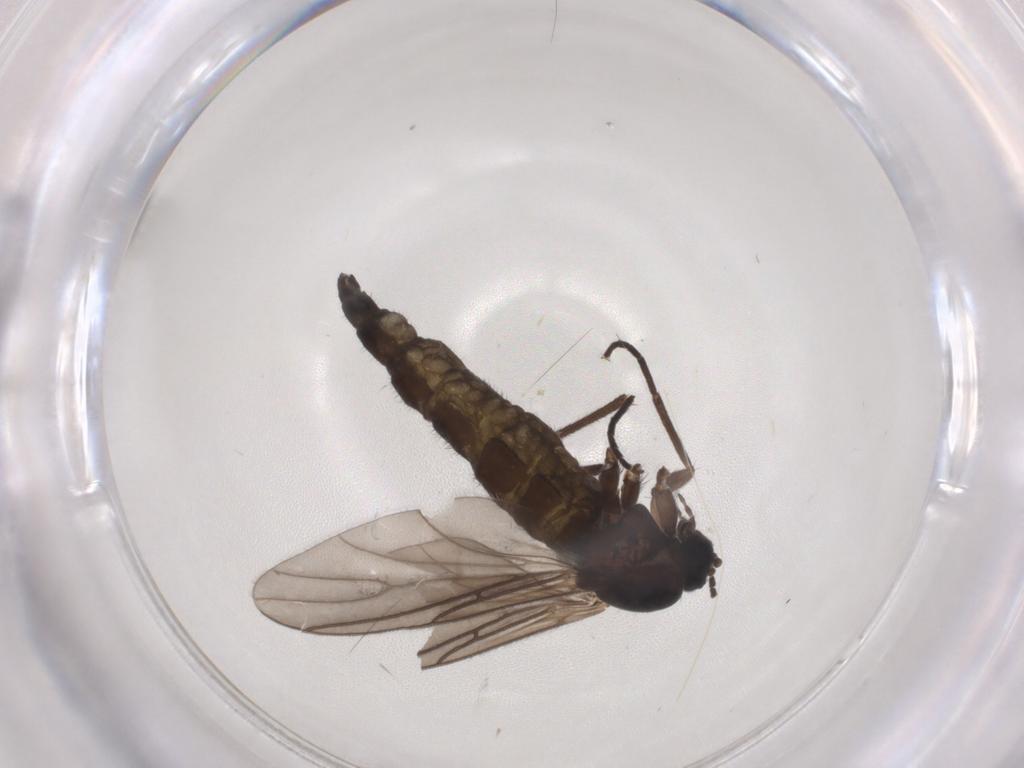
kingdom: Animalia
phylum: Arthropoda
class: Insecta
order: Diptera
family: Sciaridae
